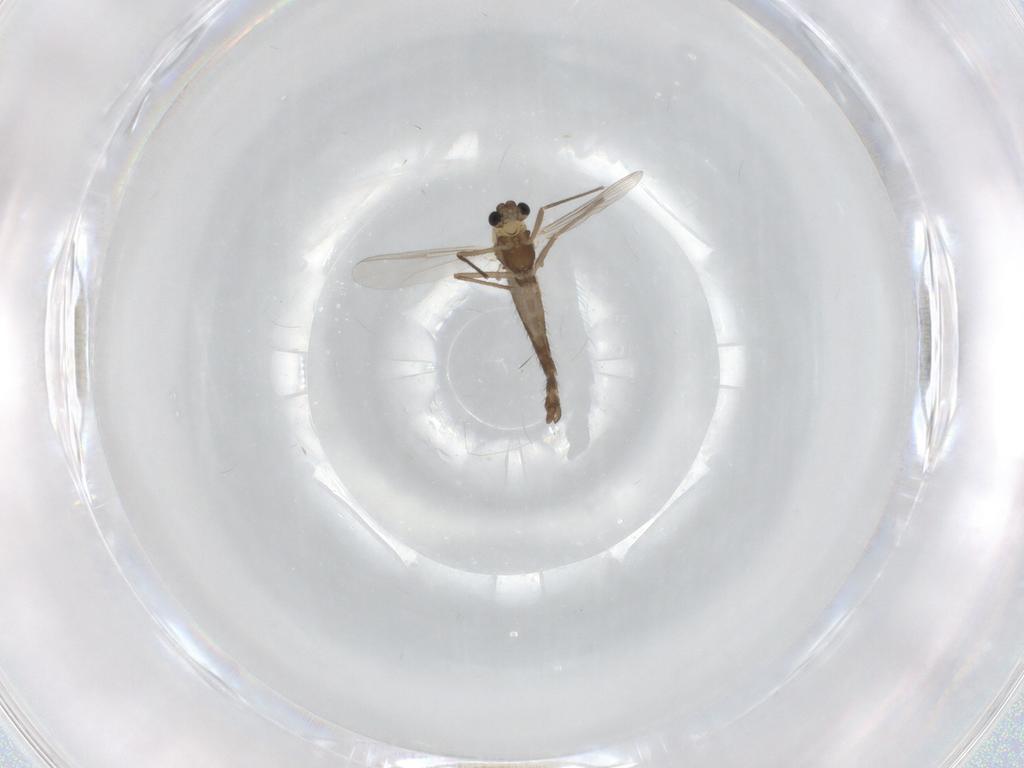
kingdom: Animalia
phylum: Arthropoda
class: Insecta
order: Diptera
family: Chironomidae
